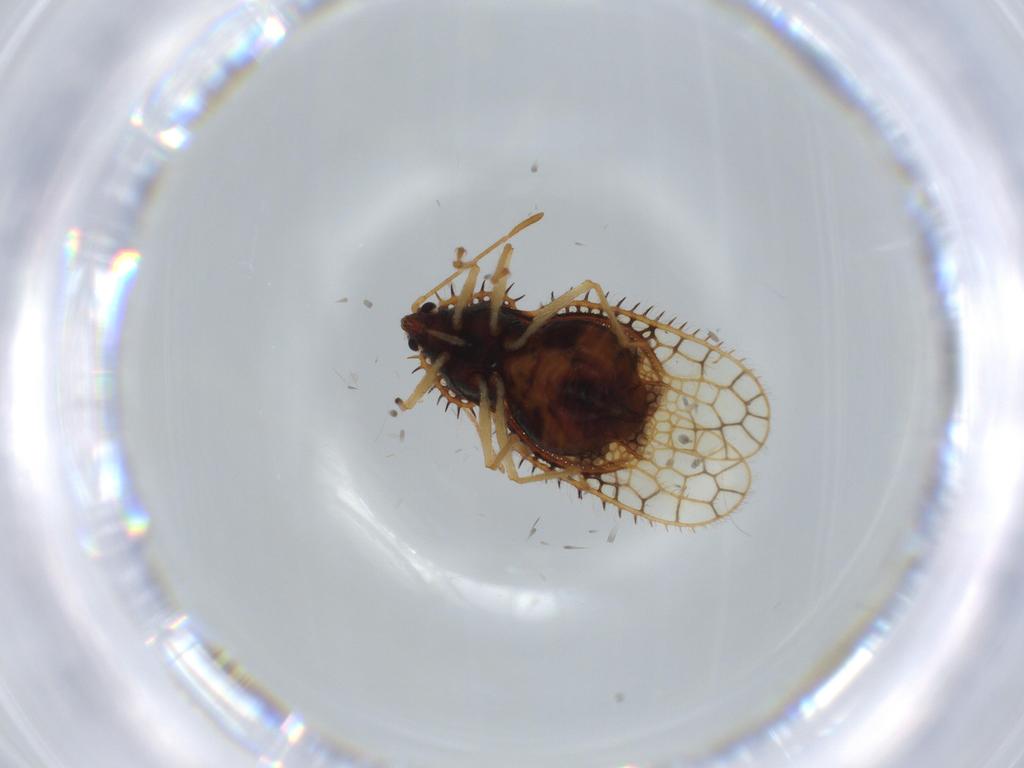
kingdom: Animalia
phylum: Arthropoda
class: Insecta
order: Hemiptera
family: Tingidae
